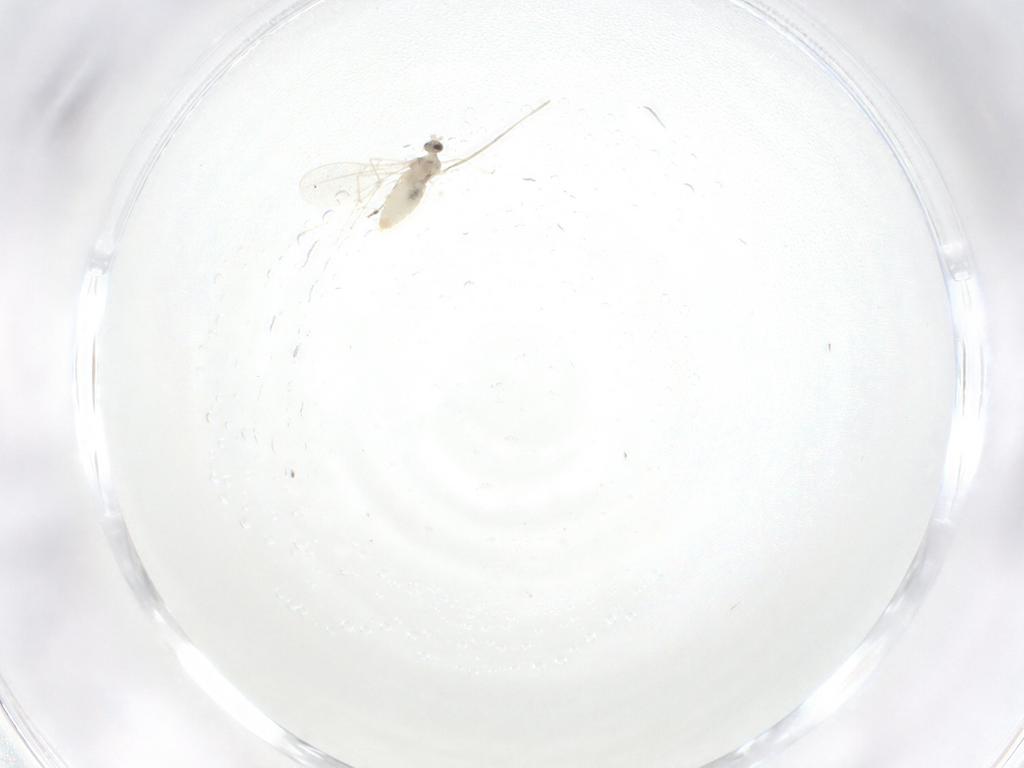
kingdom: Animalia
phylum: Arthropoda
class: Insecta
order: Diptera
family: Cecidomyiidae
